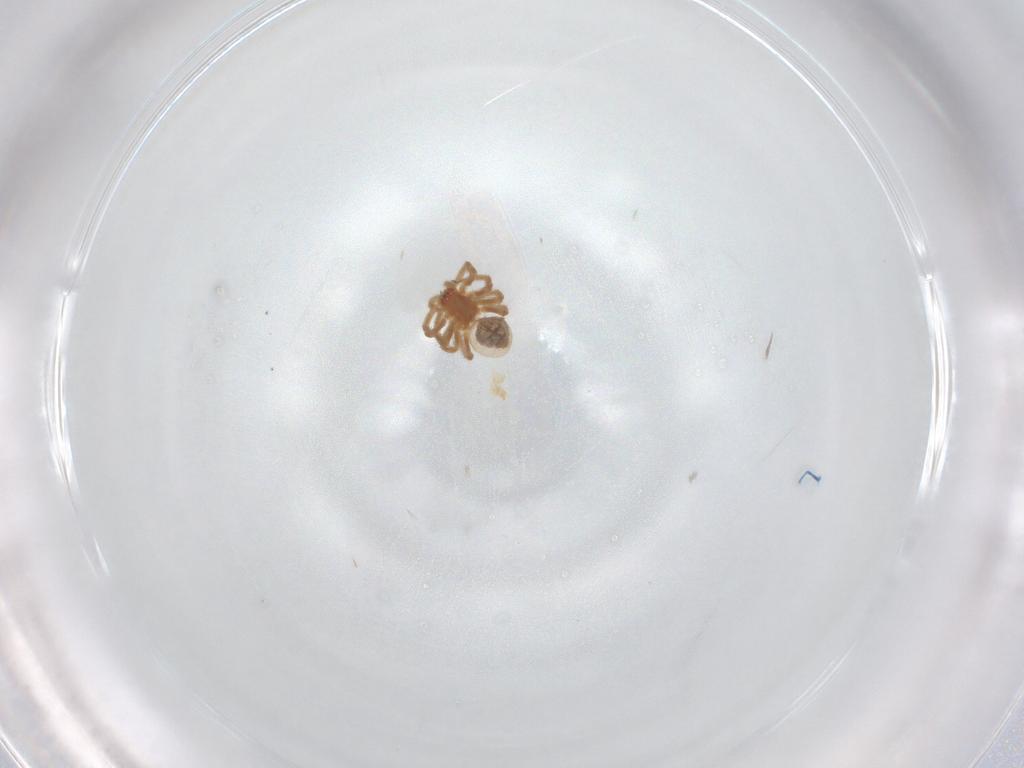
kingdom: Animalia
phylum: Arthropoda
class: Arachnida
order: Araneae
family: Dictynidae
